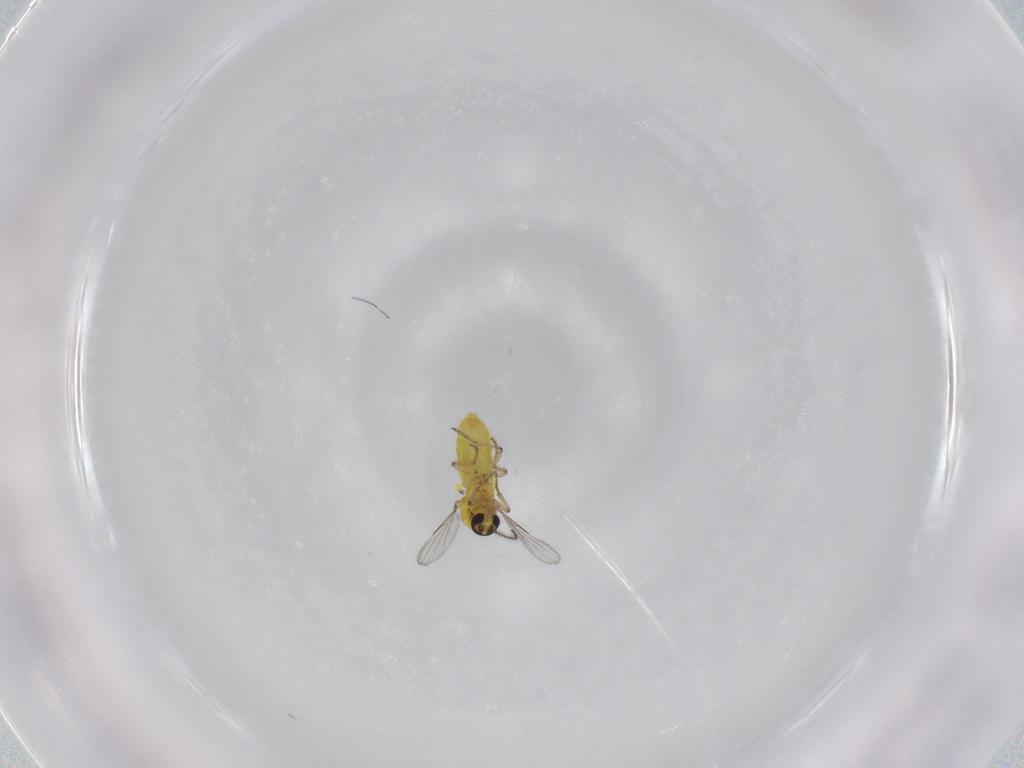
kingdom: Animalia
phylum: Arthropoda
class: Insecta
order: Diptera
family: Ceratopogonidae
